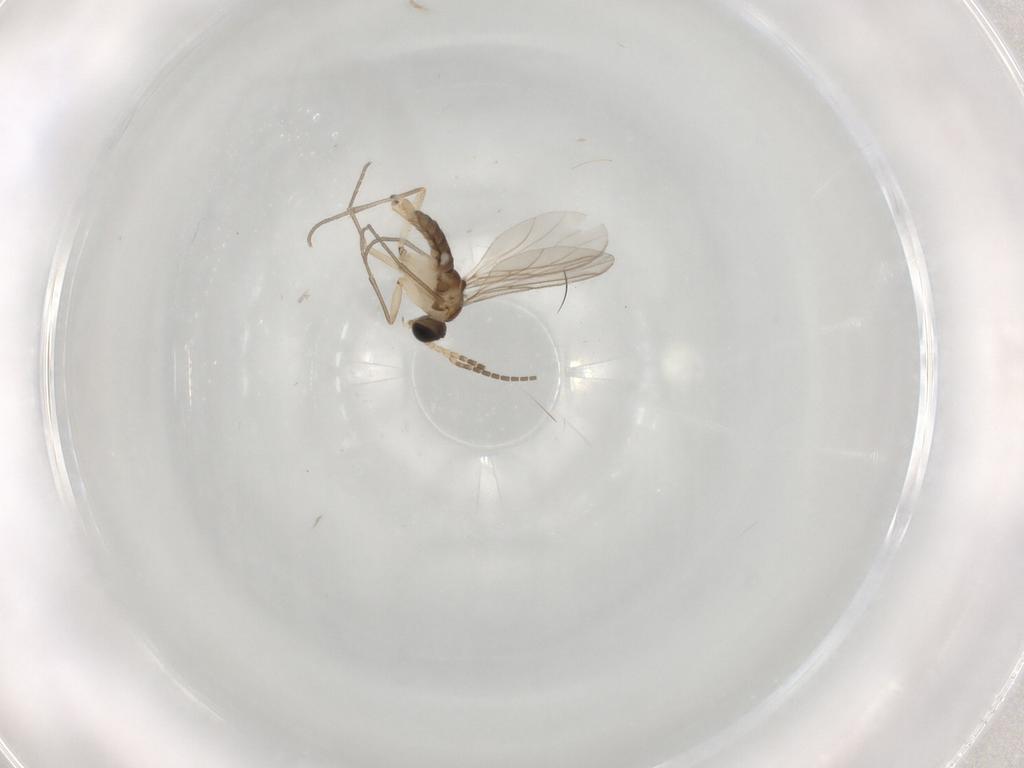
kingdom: Animalia
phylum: Arthropoda
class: Insecta
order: Diptera
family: Sciaridae
